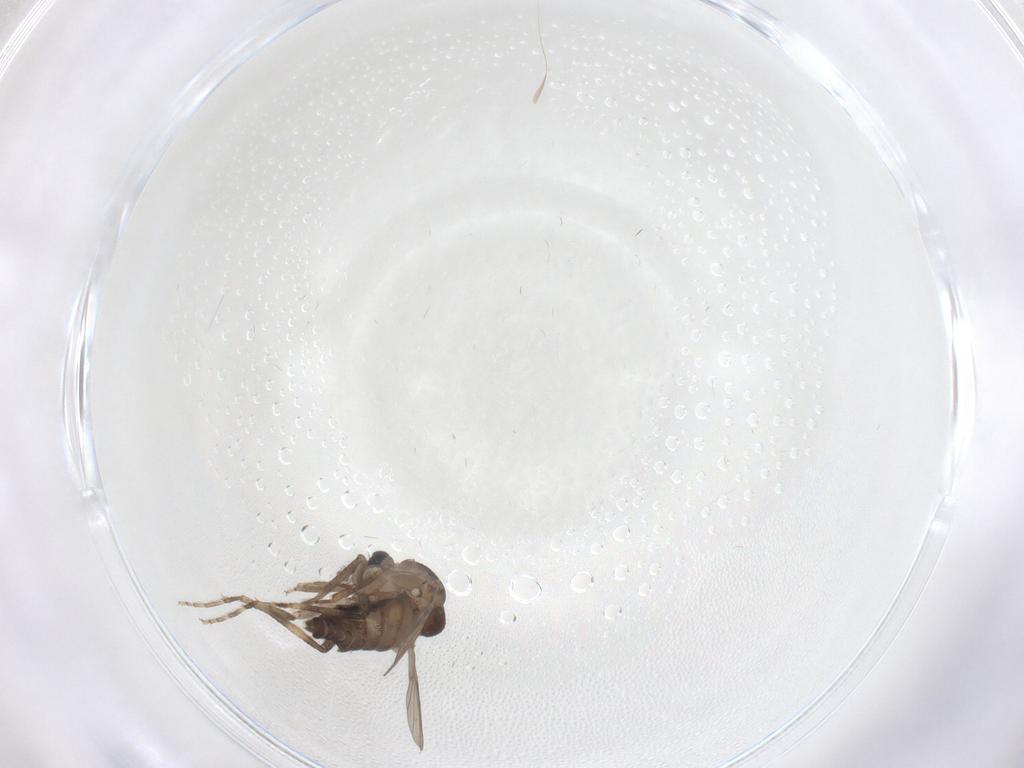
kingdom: Animalia
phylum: Arthropoda
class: Insecta
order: Diptera
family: Ceratopogonidae
